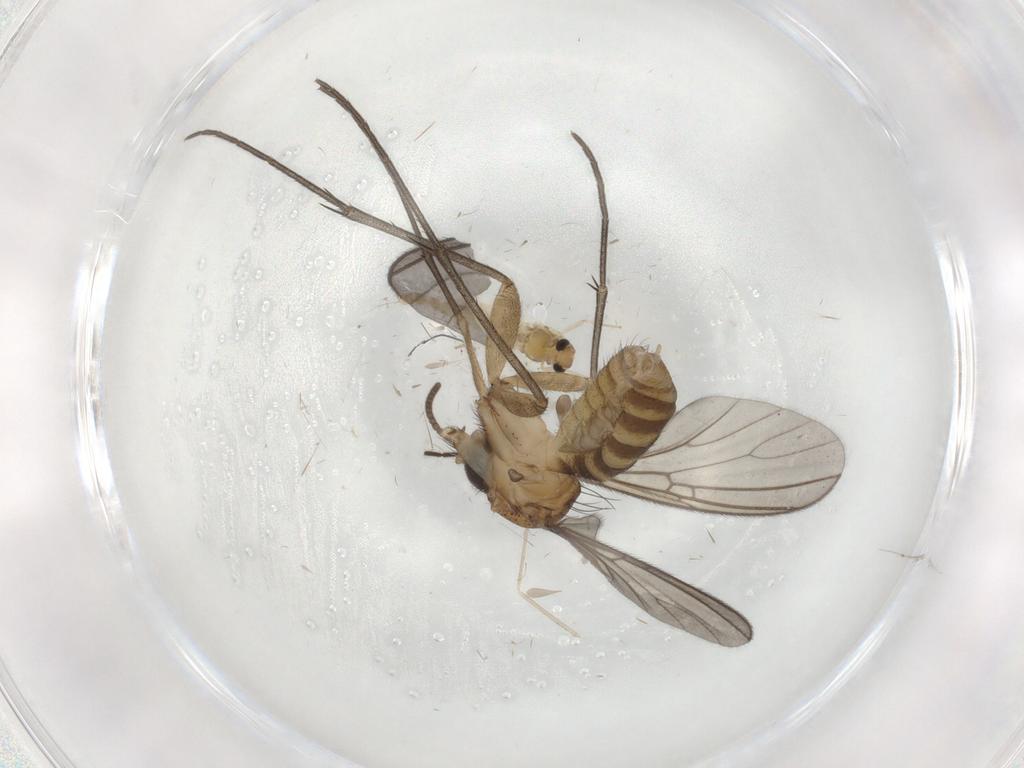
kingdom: Animalia
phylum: Arthropoda
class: Insecta
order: Diptera
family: Chironomidae
